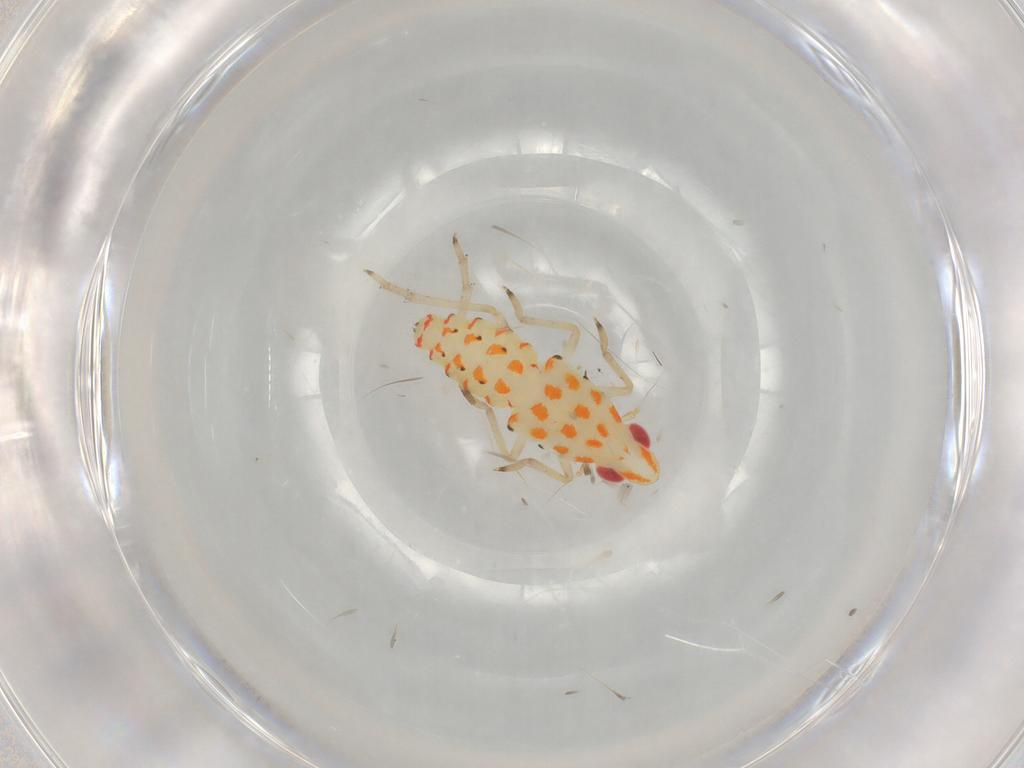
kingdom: Animalia
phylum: Arthropoda
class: Insecta
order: Hemiptera
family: Tropiduchidae
